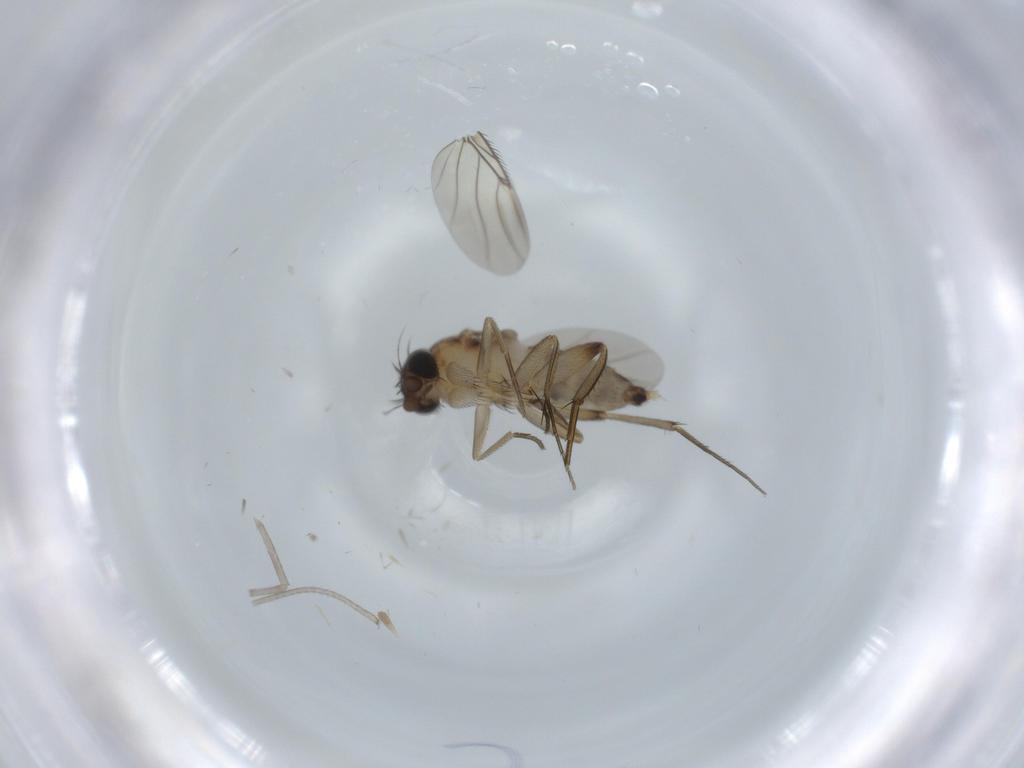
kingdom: Animalia
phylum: Arthropoda
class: Insecta
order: Diptera
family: Phoridae
